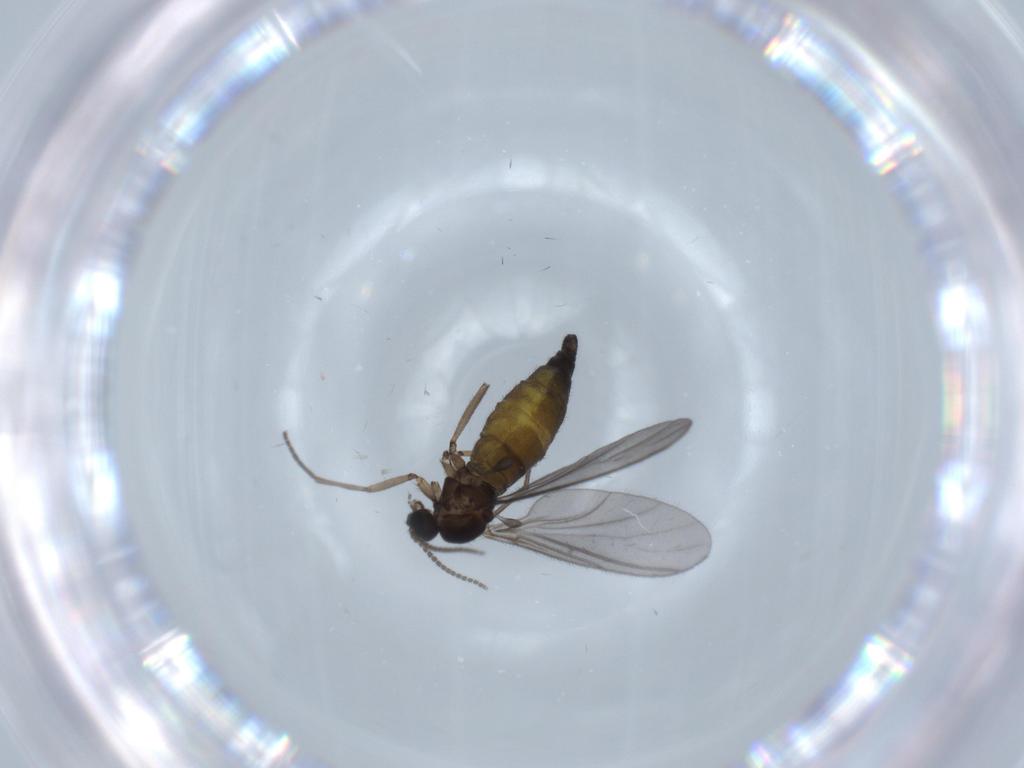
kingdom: Animalia
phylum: Arthropoda
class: Insecta
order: Diptera
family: Sciaridae
